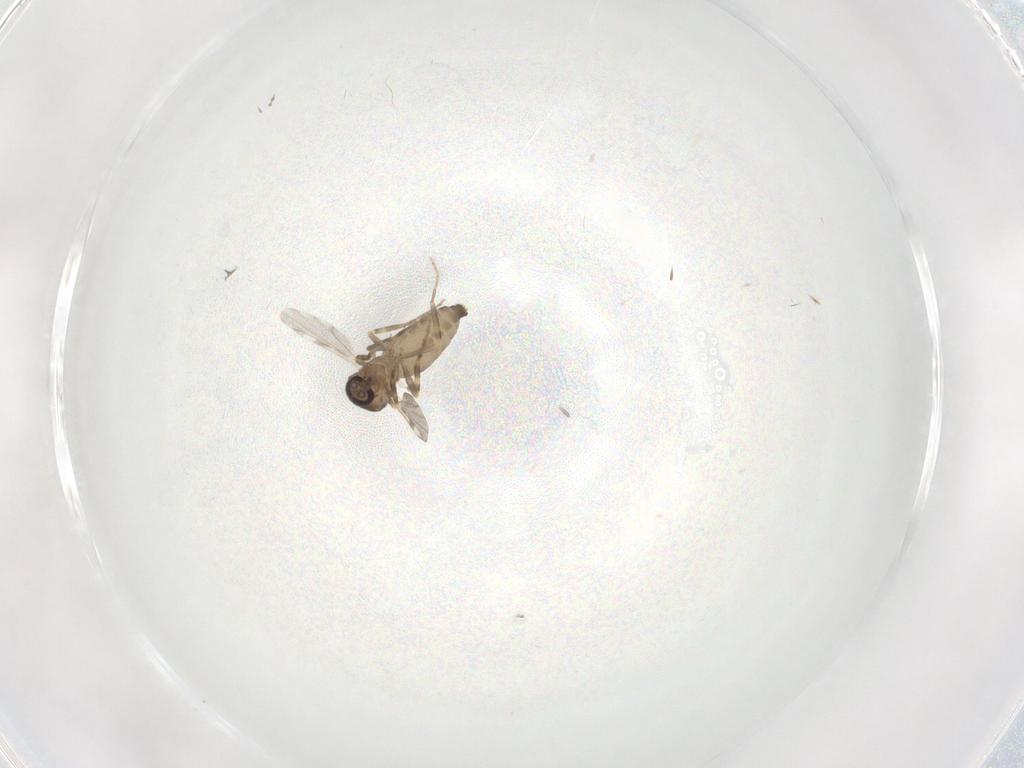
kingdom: Animalia
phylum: Arthropoda
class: Insecta
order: Diptera
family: Ceratopogonidae
